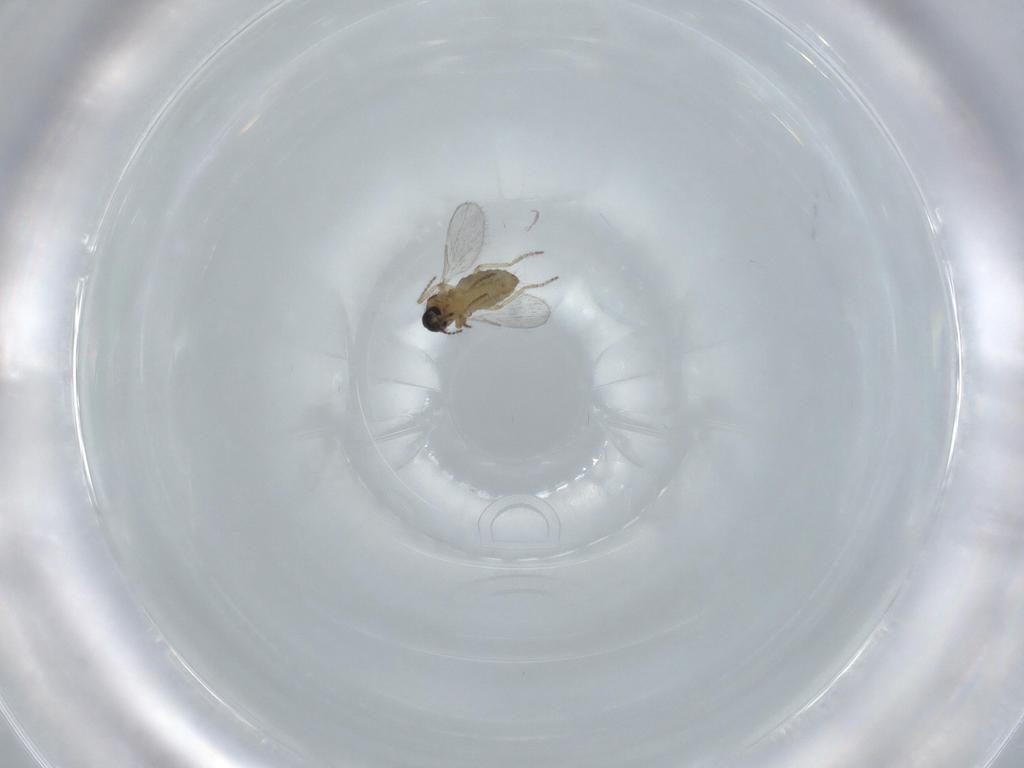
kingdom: Animalia
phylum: Arthropoda
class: Insecta
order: Diptera
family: Ceratopogonidae
